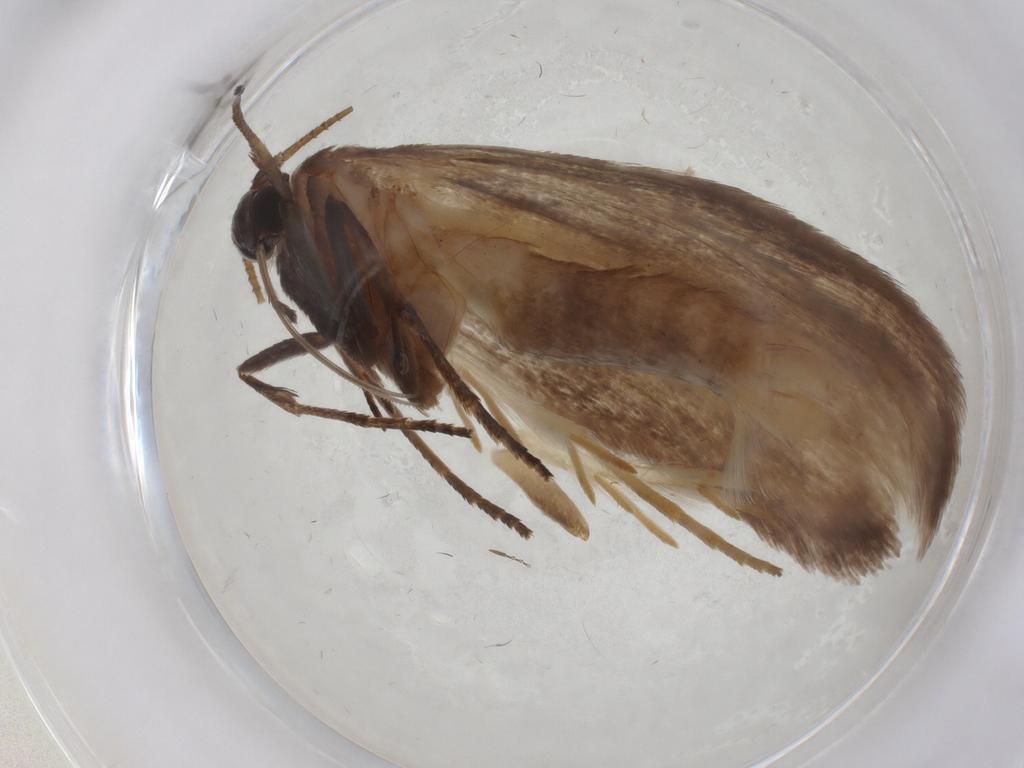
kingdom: Animalia
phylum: Arthropoda
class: Insecta
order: Lepidoptera
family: Roeslerstammiidae
